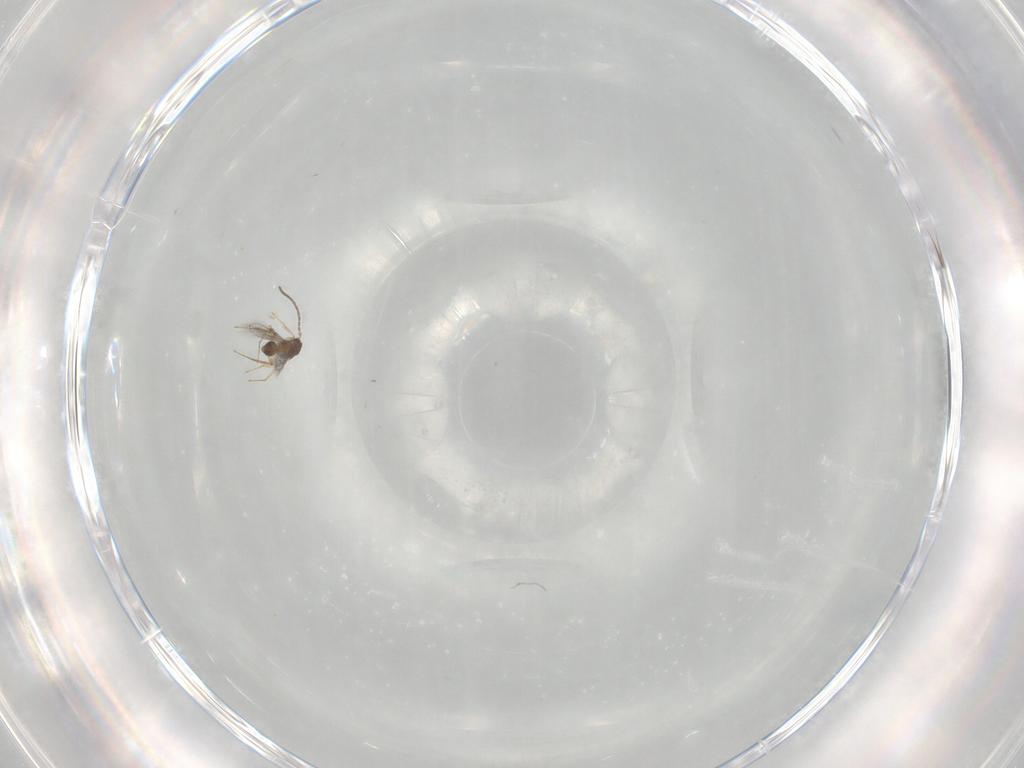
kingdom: Animalia
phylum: Arthropoda
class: Insecta
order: Hymenoptera
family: Mymaridae
